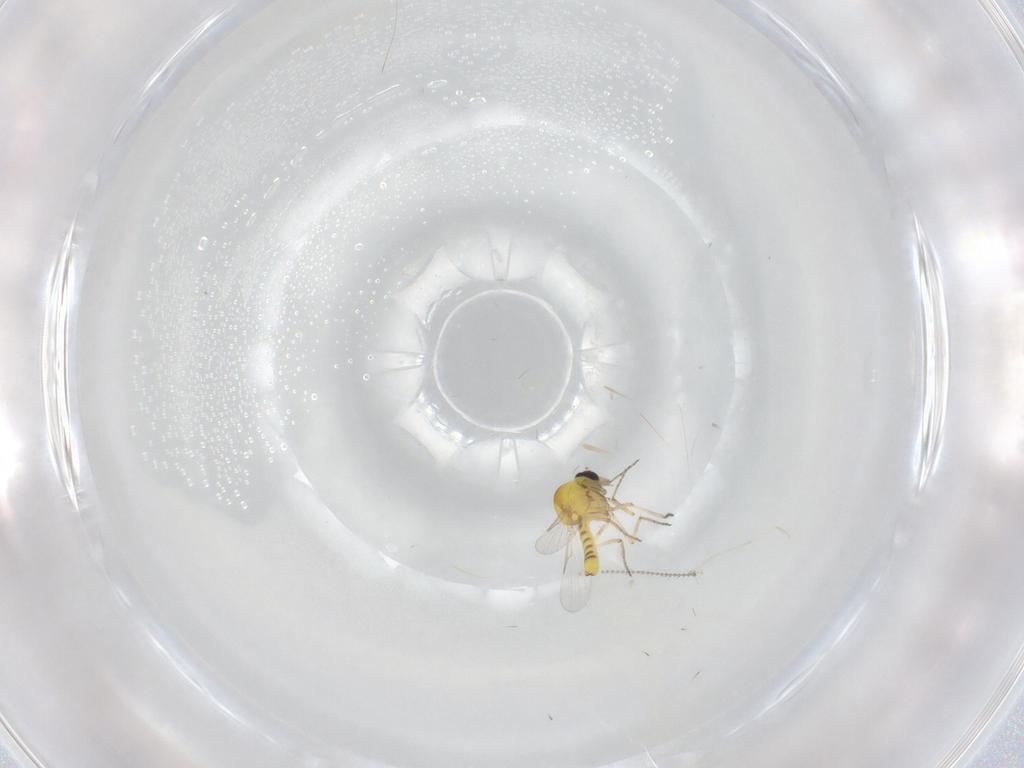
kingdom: Animalia
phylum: Arthropoda
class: Insecta
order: Diptera
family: Ceratopogonidae
